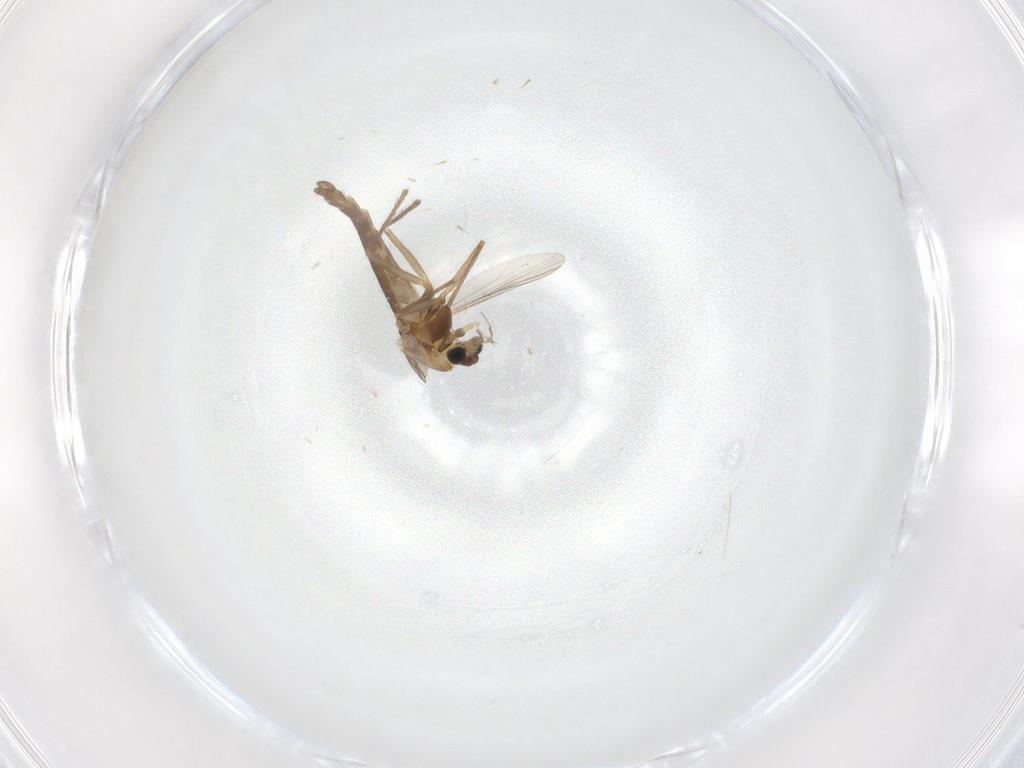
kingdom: Animalia
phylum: Arthropoda
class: Insecta
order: Diptera
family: Chironomidae
